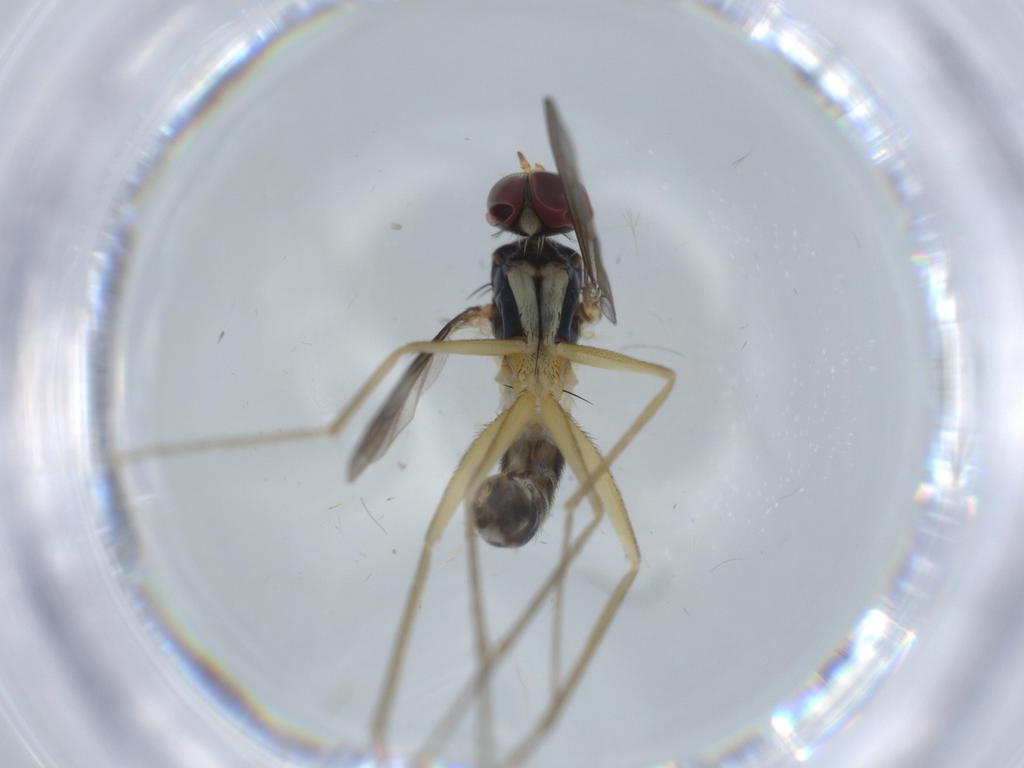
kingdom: Animalia
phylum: Arthropoda
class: Insecta
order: Diptera
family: Dolichopodidae
